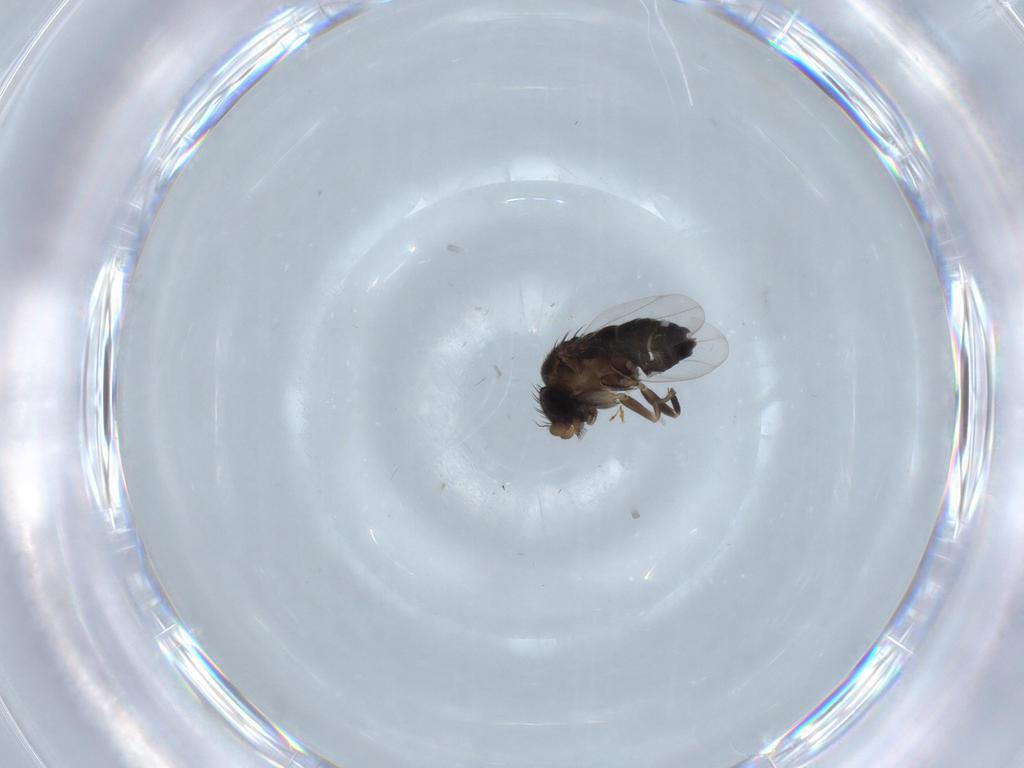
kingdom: Animalia
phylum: Arthropoda
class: Insecta
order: Diptera
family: Phoridae
